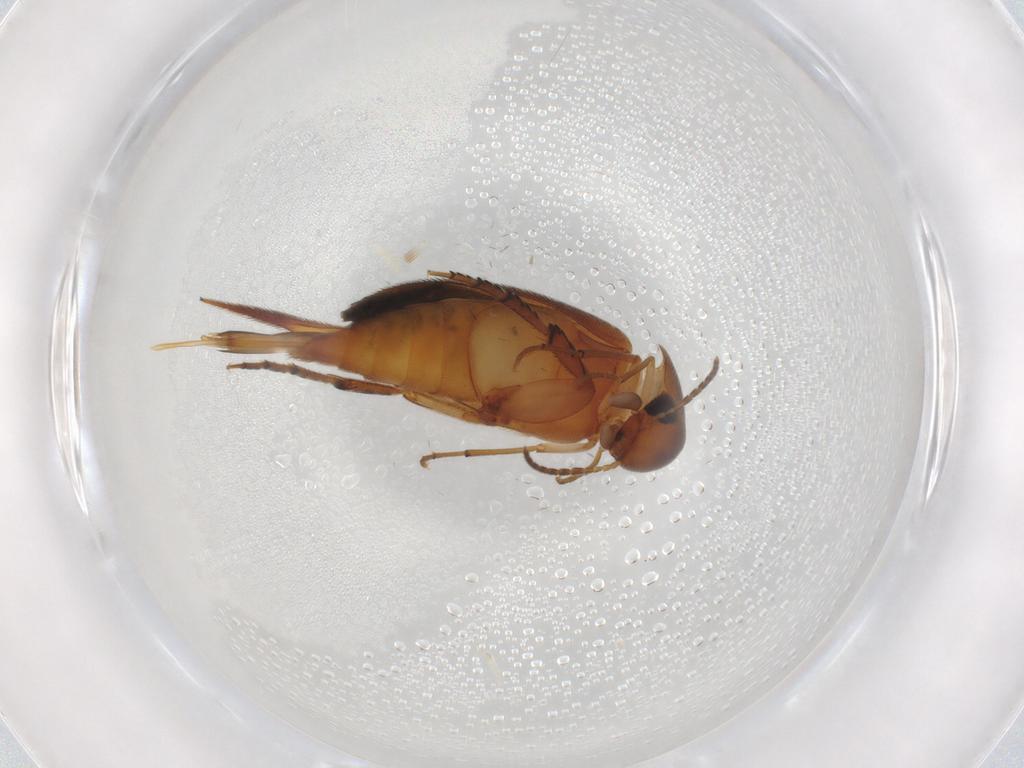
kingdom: Animalia
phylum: Arthropoda
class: Insecta
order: Coleoptera
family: Mordellidae
